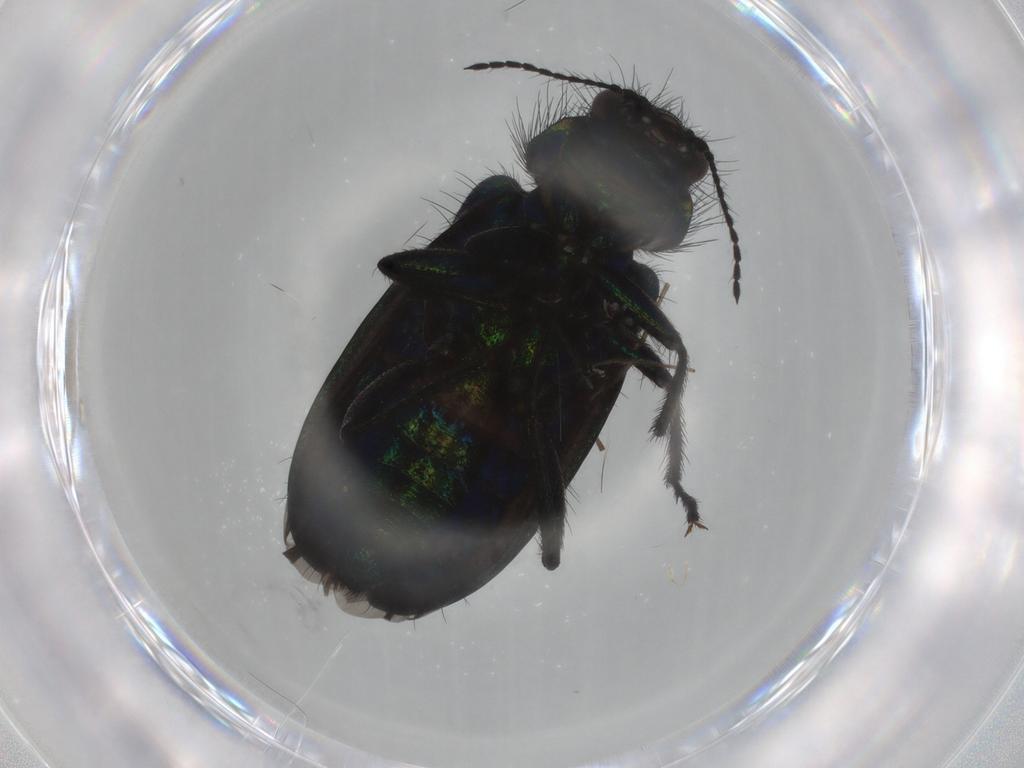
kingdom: Animalia
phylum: Arthropoda
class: Insecta
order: Coleoptera
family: Melyridae
